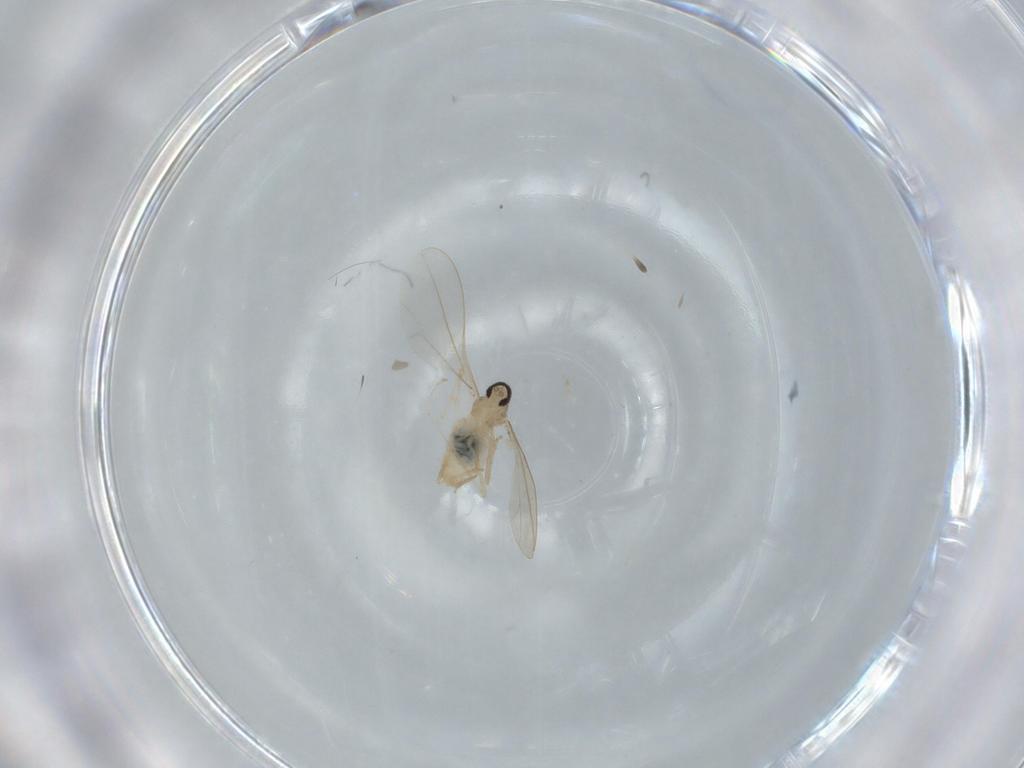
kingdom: Animalia
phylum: Arthropoda
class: Insecta
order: Diptera
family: Cecidomyiidae
